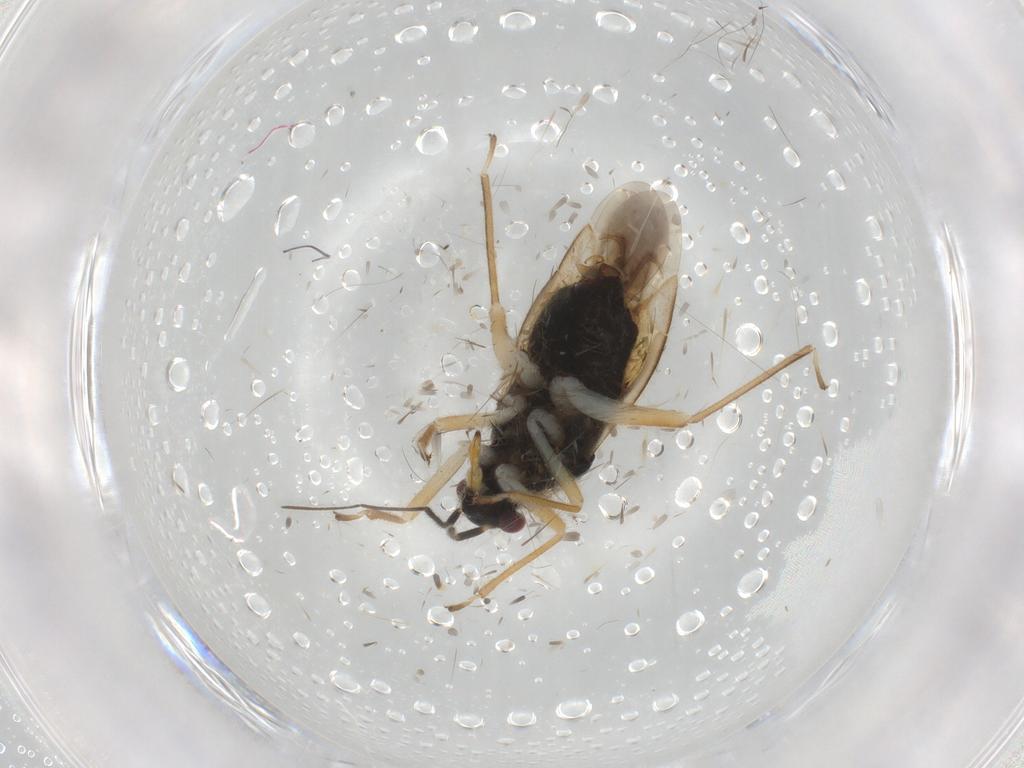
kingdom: Animalia
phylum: Arthropoda
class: Insecta
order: Hemiptera
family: Miridae
